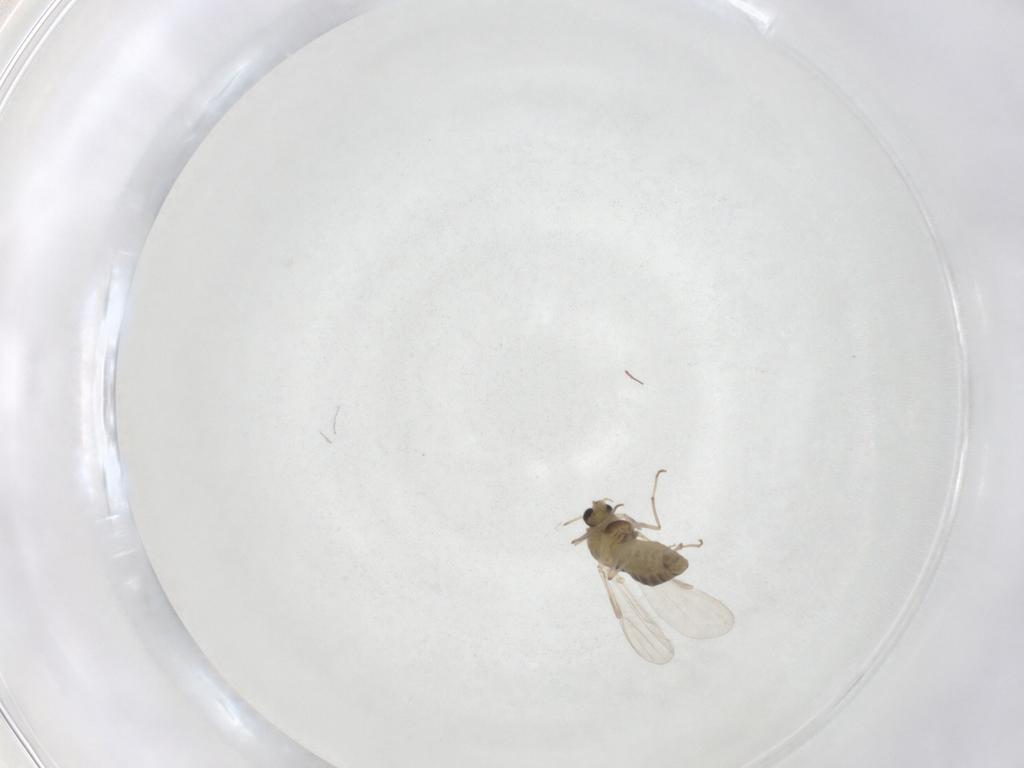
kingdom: Animalia
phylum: Arthropoda
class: Insecta
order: Diptera
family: Chironomidae
